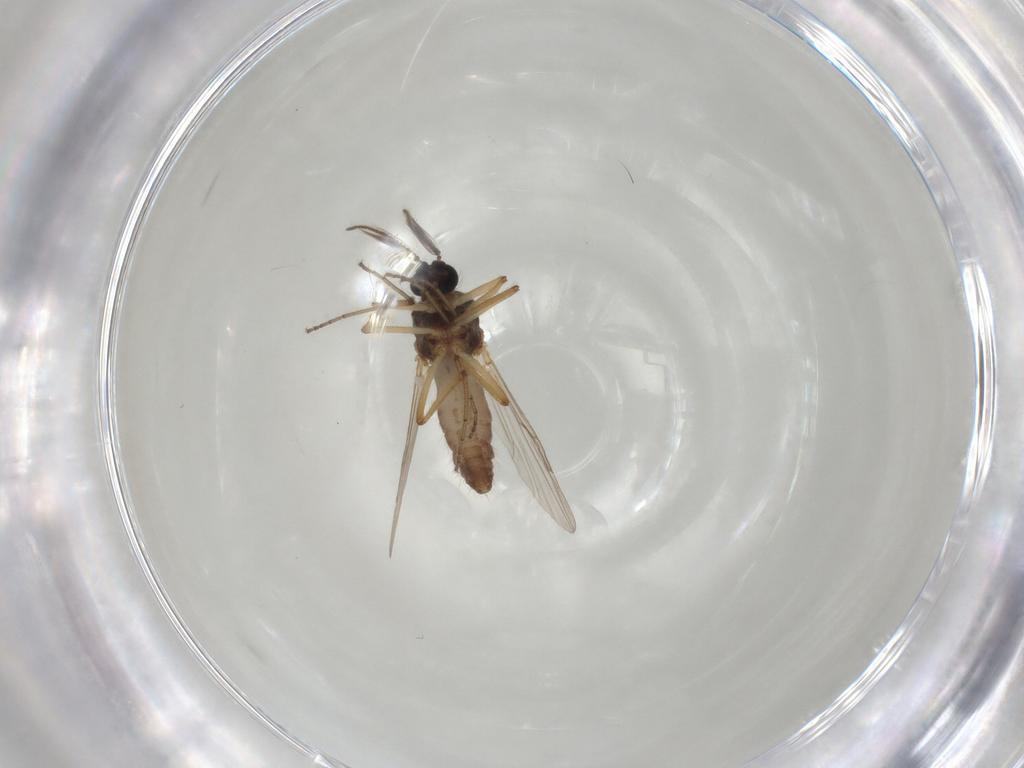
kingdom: Animalia
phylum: Arthropoda
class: Insecta
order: Diptera
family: Ceratopogonidae
